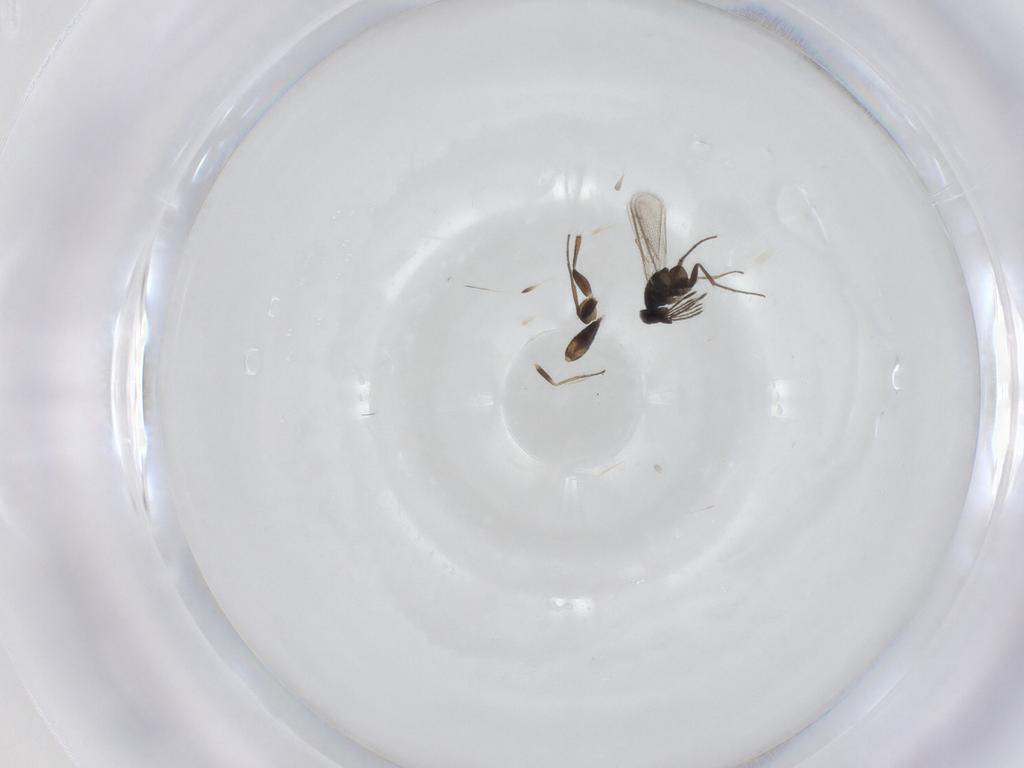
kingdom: Animalia
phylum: Arthropoda
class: Insecta
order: Hymenoptera
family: Eulophidae
